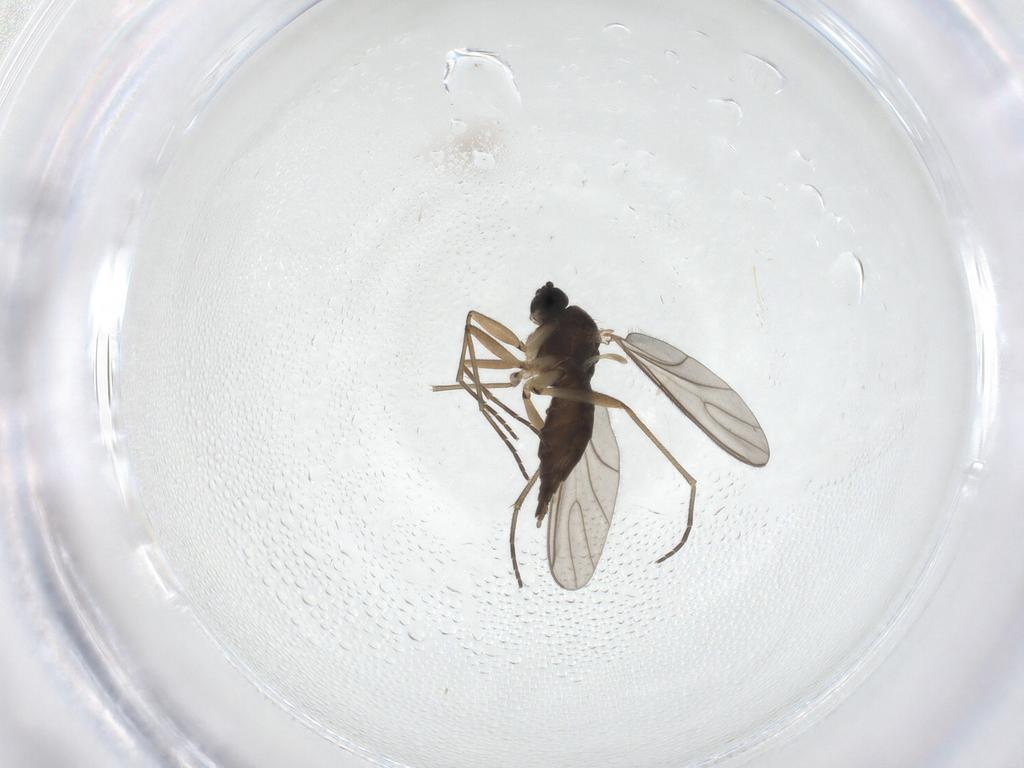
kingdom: Animalia
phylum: Arthropoda
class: Insecta
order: Diptera
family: Sciaridae
